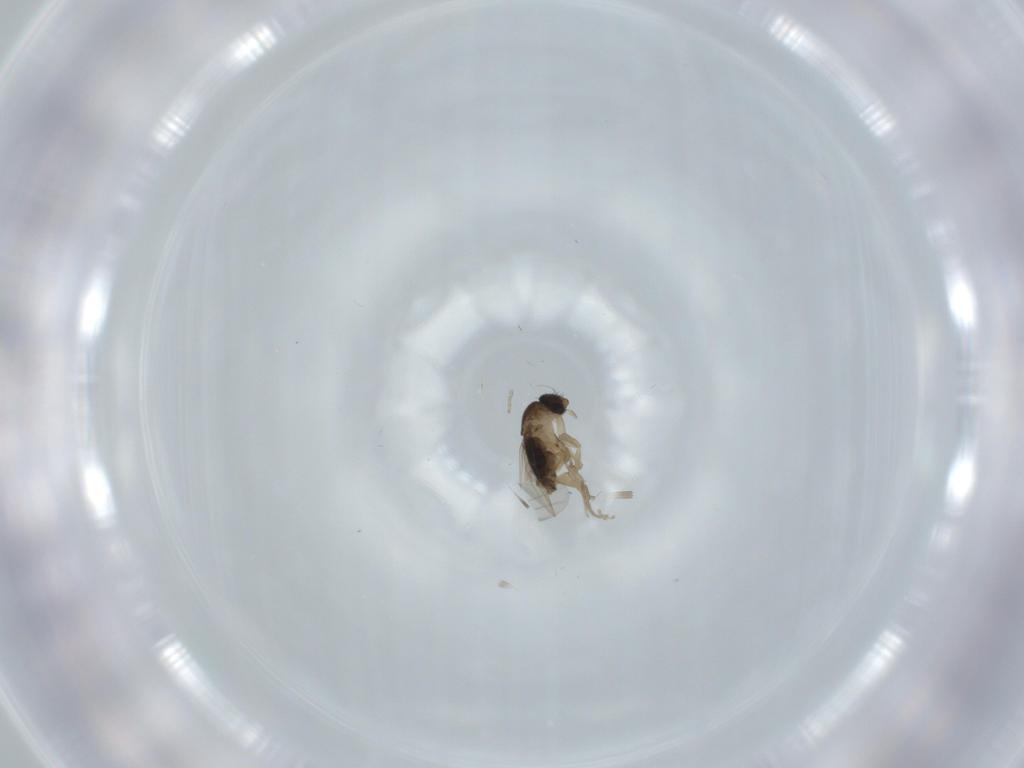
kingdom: Animalia
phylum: Arthropoda
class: Insecta
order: Diptera
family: Phoridae
